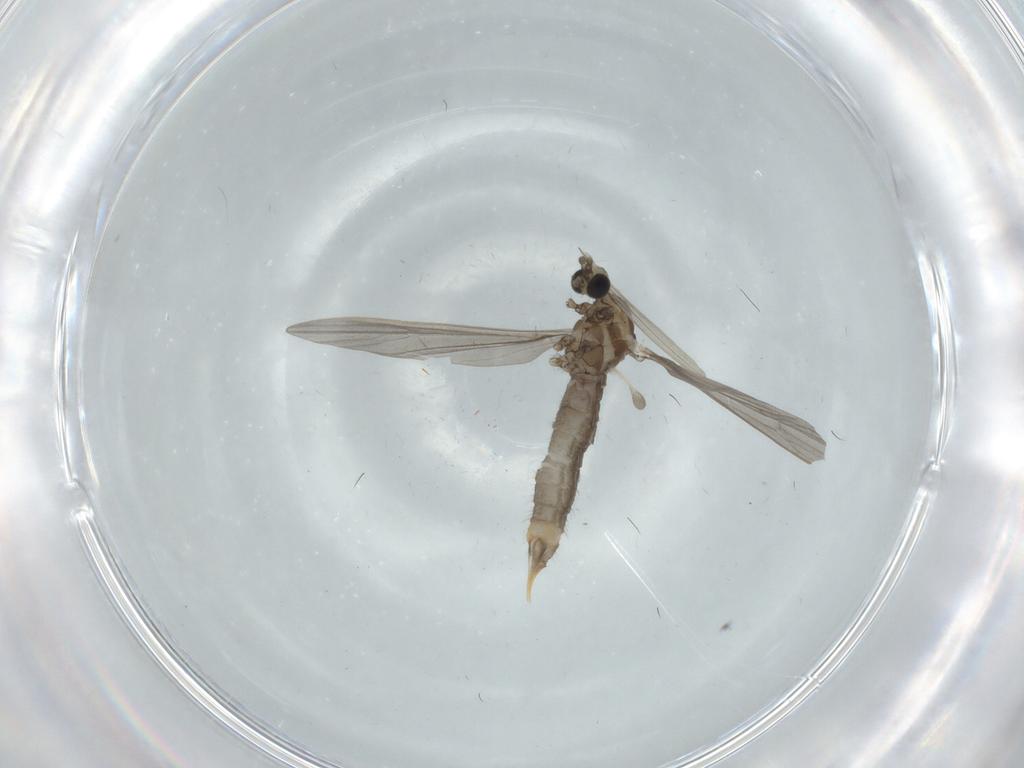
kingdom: Animalia
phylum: Arthropoda
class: Insecta
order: Diptera
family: Limoniidae
